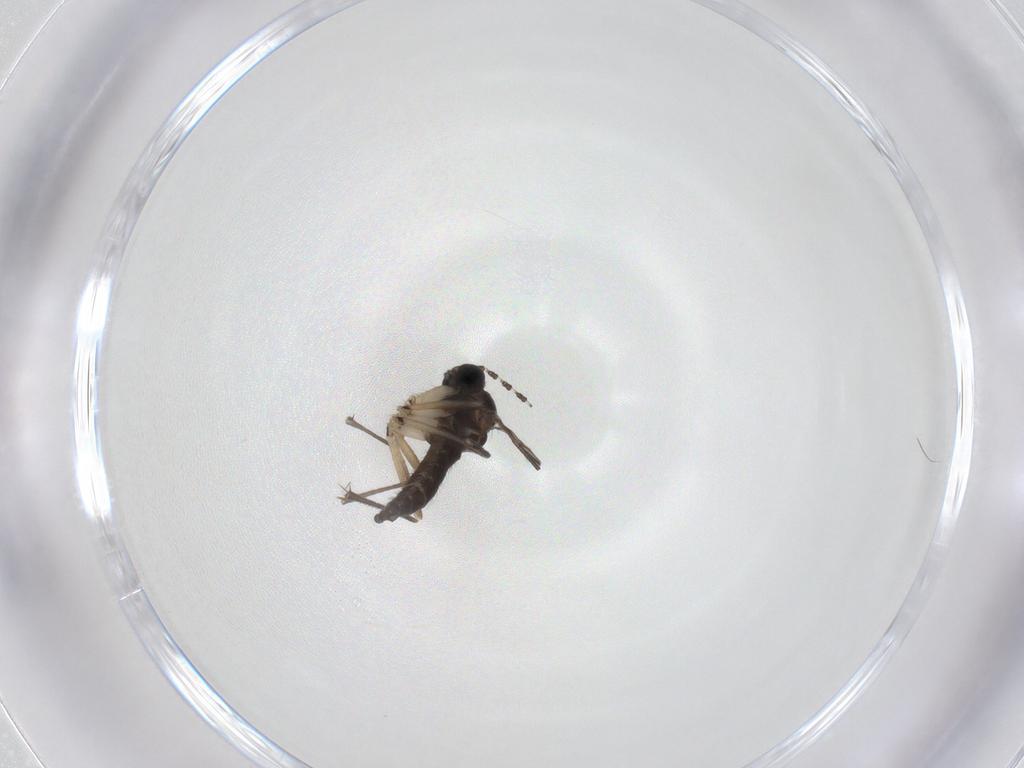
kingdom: Animalia
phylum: Arthropoda
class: Insecta
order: Diptera
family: Sciaridae
